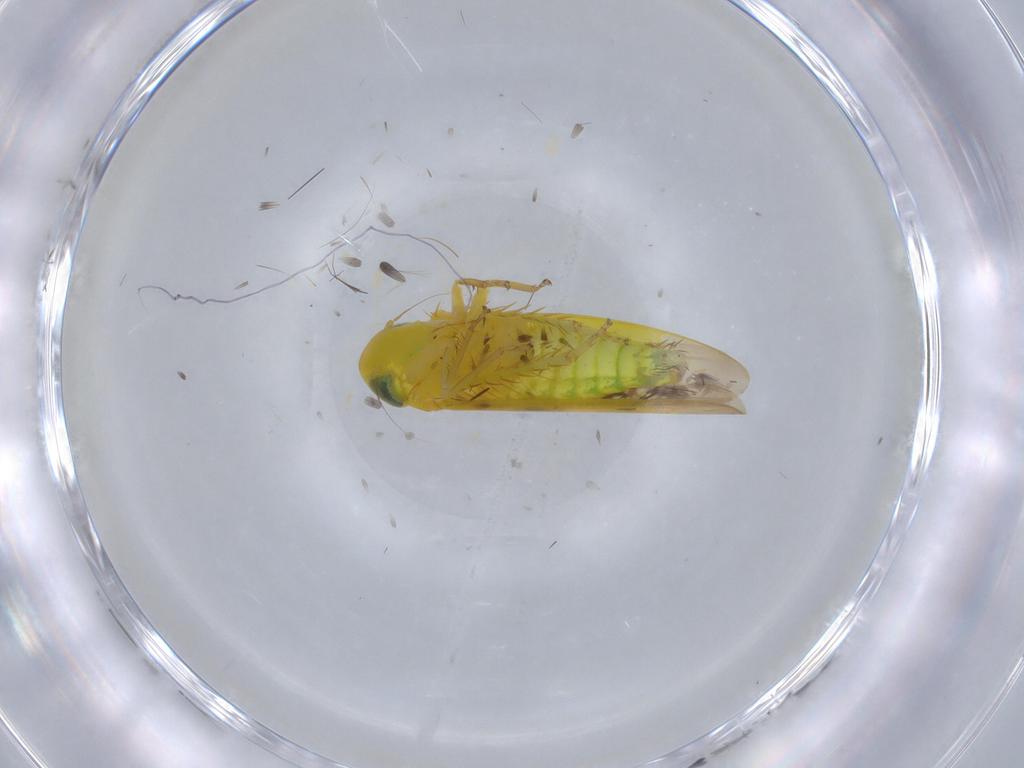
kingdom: Animalia
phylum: Arthropoda
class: Insecta
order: Hemiptera
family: Cicadellidae
